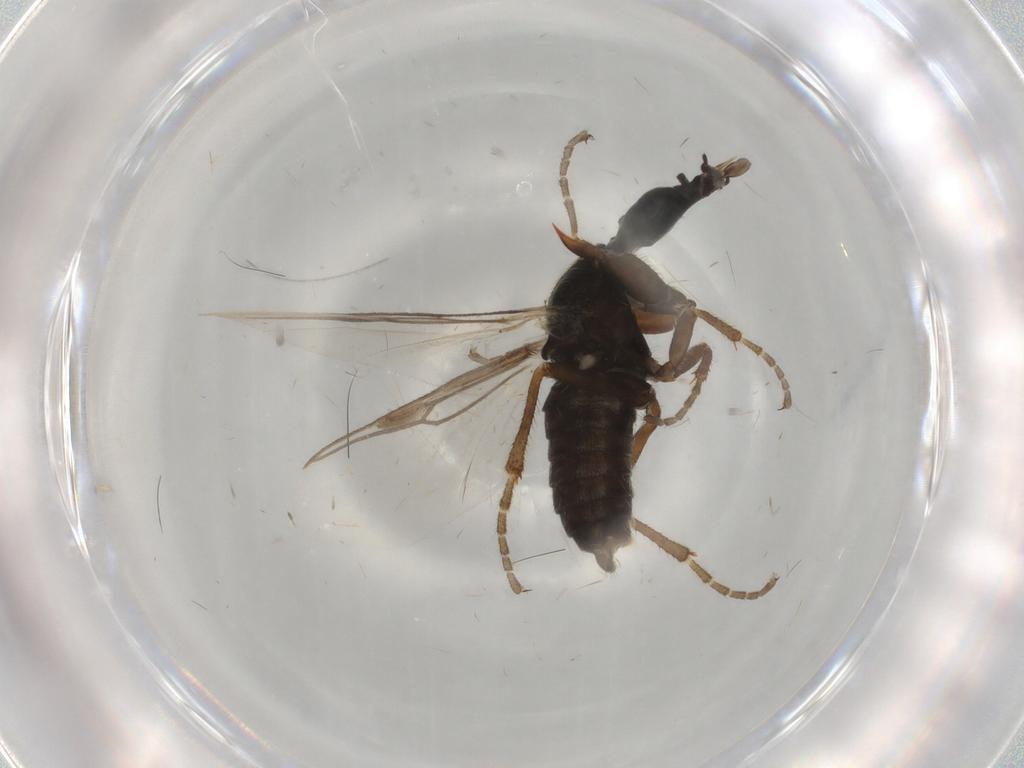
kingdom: Animalia
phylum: Arthropoda
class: Insecta
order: Diptera
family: Bibionidae
